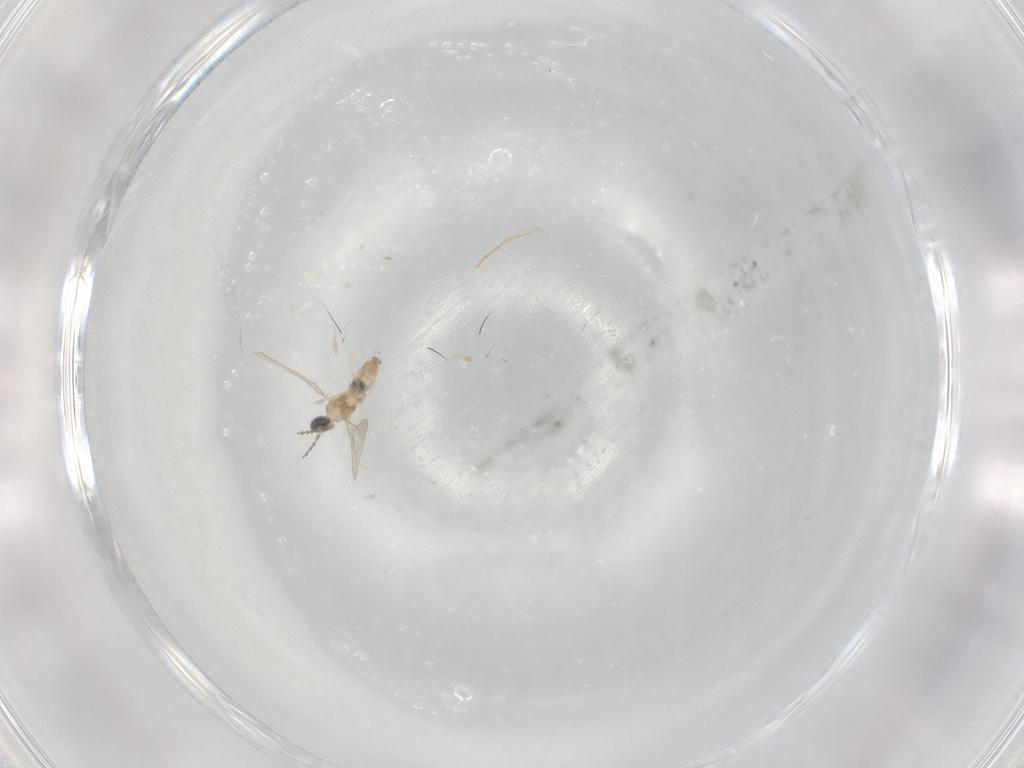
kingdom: Animalia
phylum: Arthropoda
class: Insecta
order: Diptera
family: Cecidomyiidae
